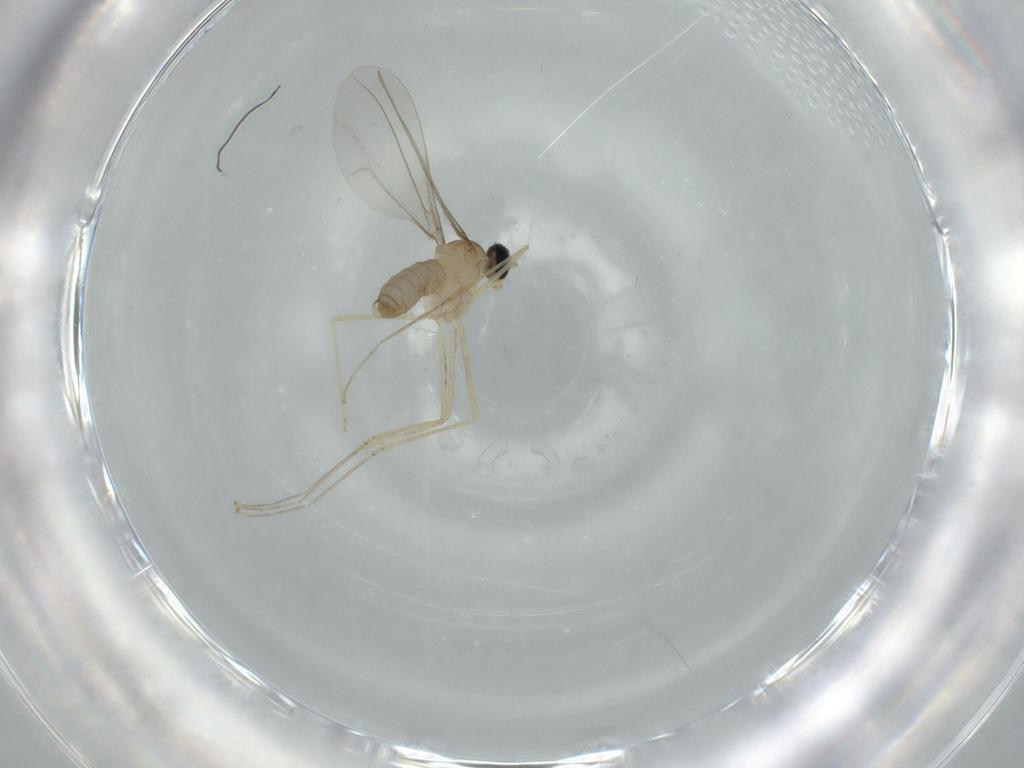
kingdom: Animalia
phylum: Arthropoda
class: Insecta
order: Diptera
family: Cecidomyiidae
